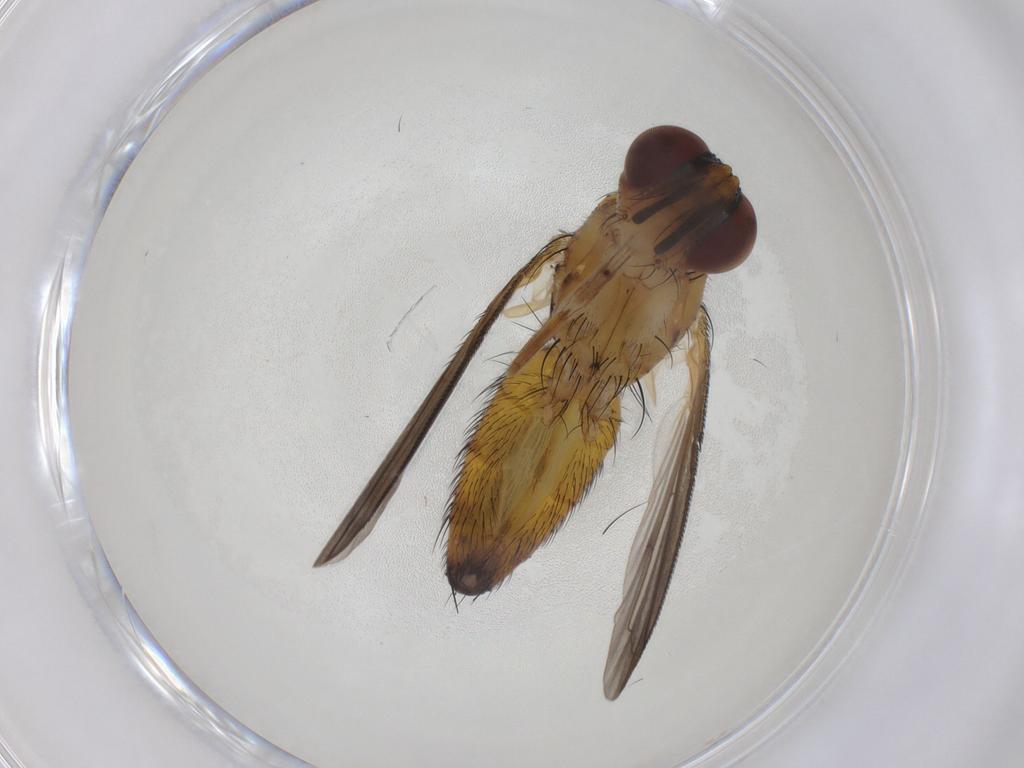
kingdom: Animalia
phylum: Arthropoda
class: Insecta
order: Diptera
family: Tachinidae
